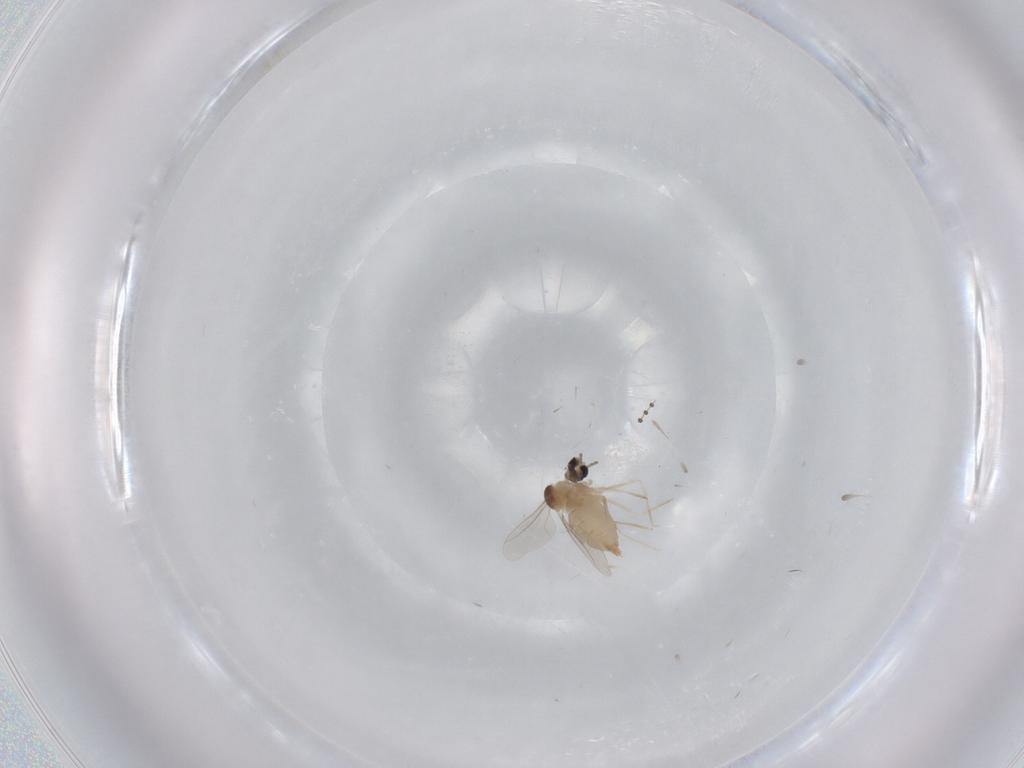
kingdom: Animalia
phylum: Arthropoda
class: Insecta
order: Diptera
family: Cecidomyiidae
